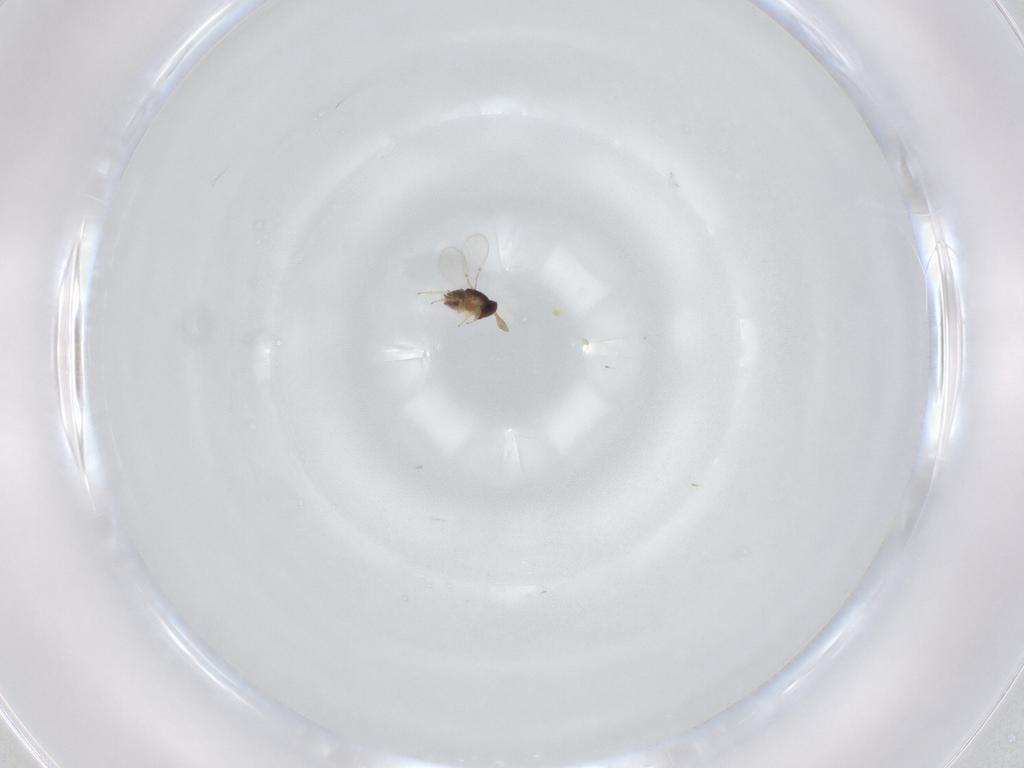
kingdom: Animalia
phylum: Arthropoda
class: Insecta
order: Hymenoptera
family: Encyrtidae
